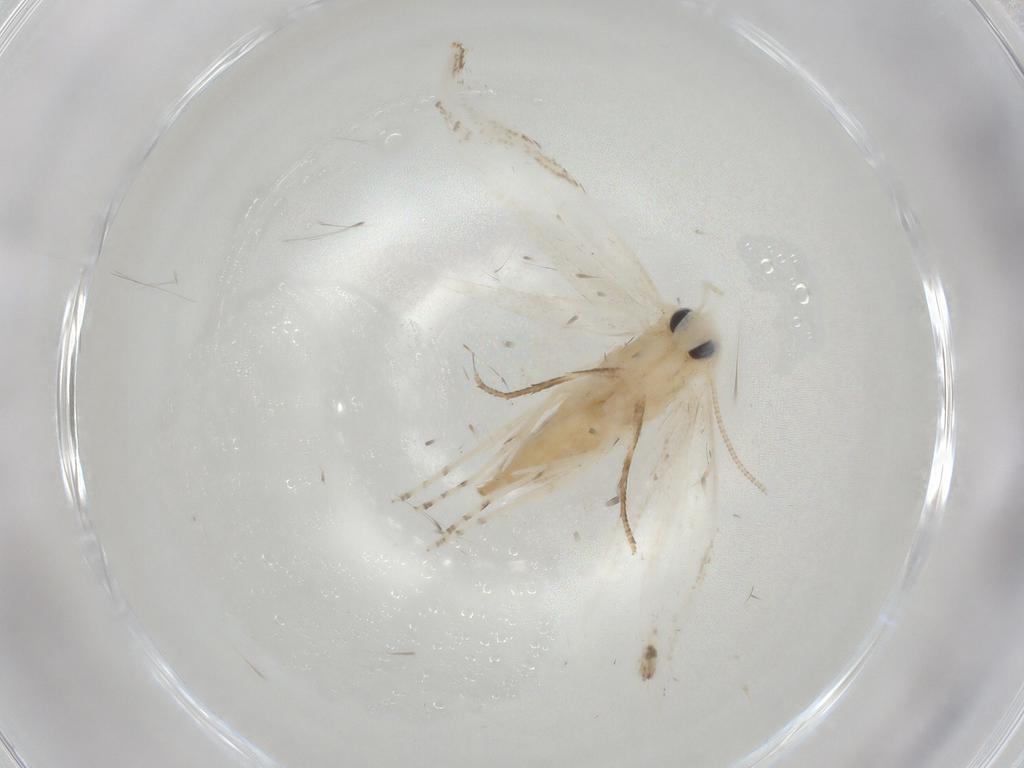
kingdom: Animalia
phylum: Arthropoda
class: Insecta
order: Lepidoptera
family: Lyonetiidae
